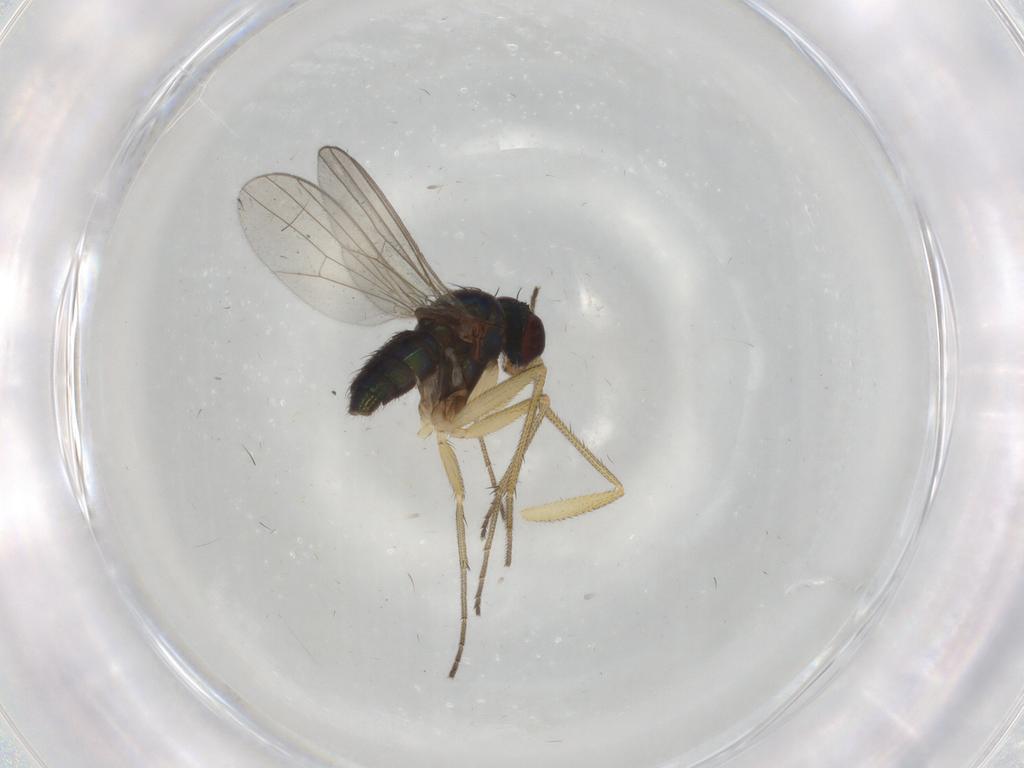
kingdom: Animalia
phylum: Arthropoda
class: Insecta
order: Diptera
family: Dolichopodidae
